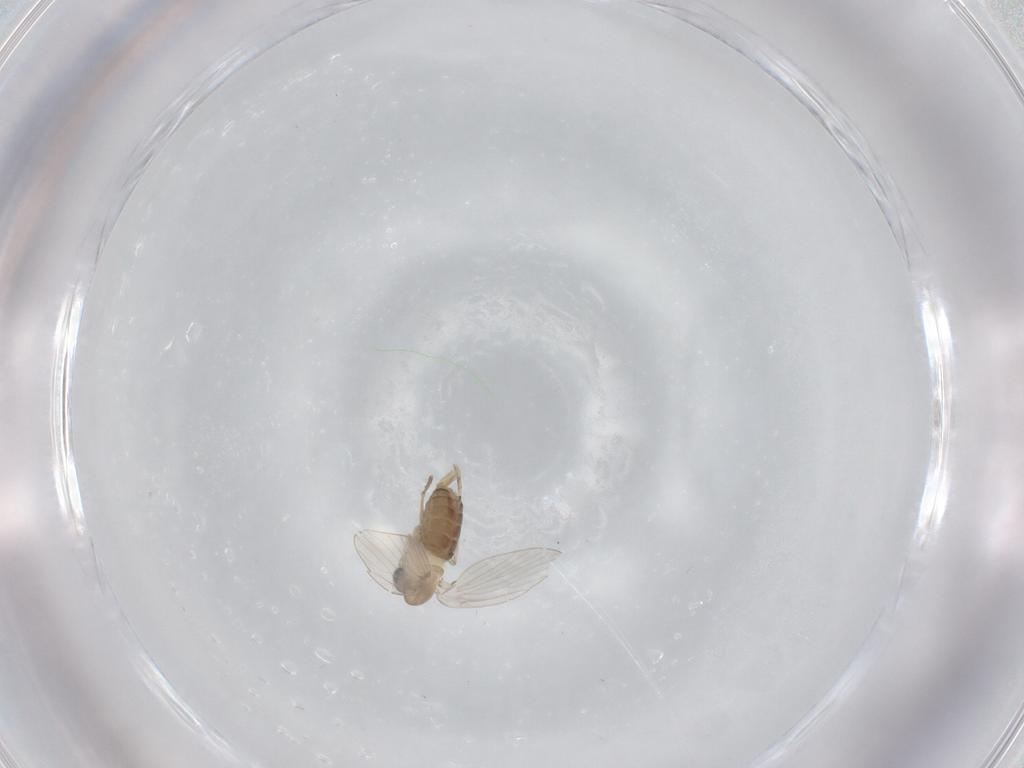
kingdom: Animalia
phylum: Arthropoda
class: Insecta
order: Diptera
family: Psychodidae
